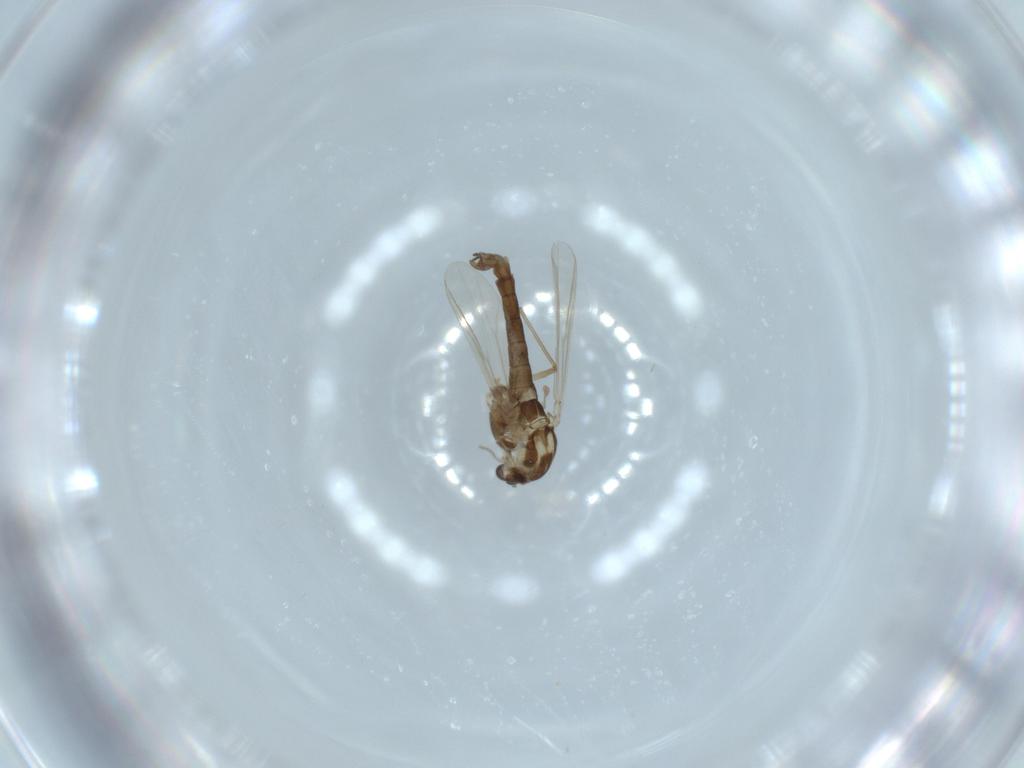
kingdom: Animalia
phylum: Arthropoda
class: Insecta
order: Diptera
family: Chironomidae
